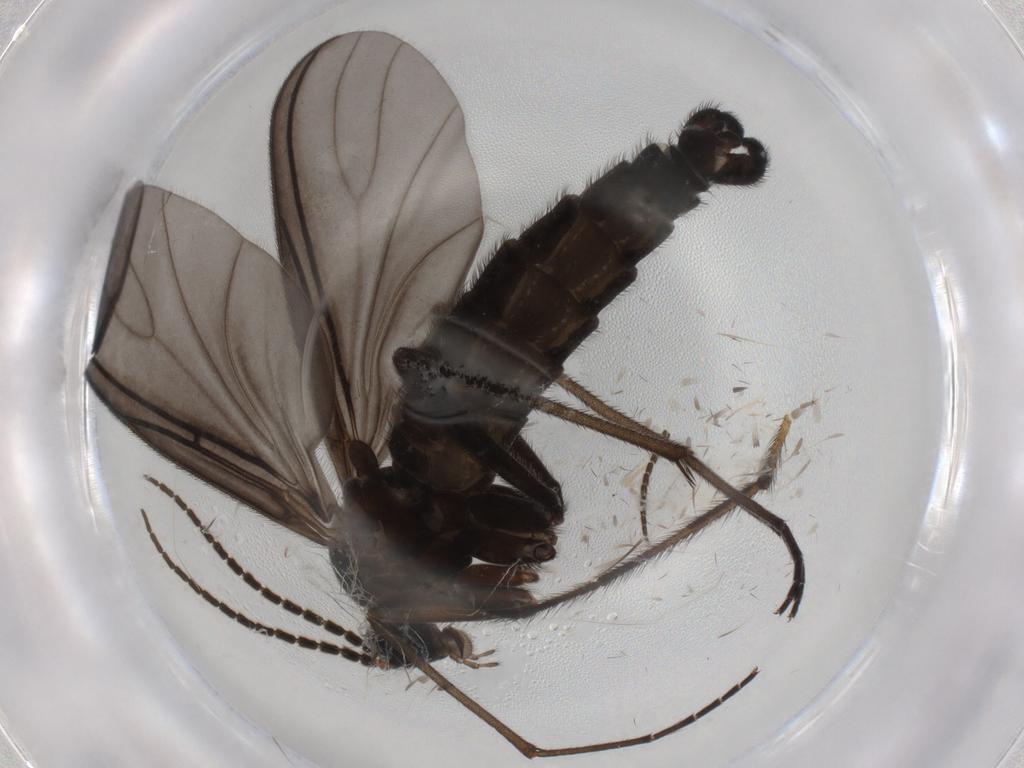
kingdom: Animalia
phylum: Arthropoda
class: Insecta
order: Diptera
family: Limoniidae
